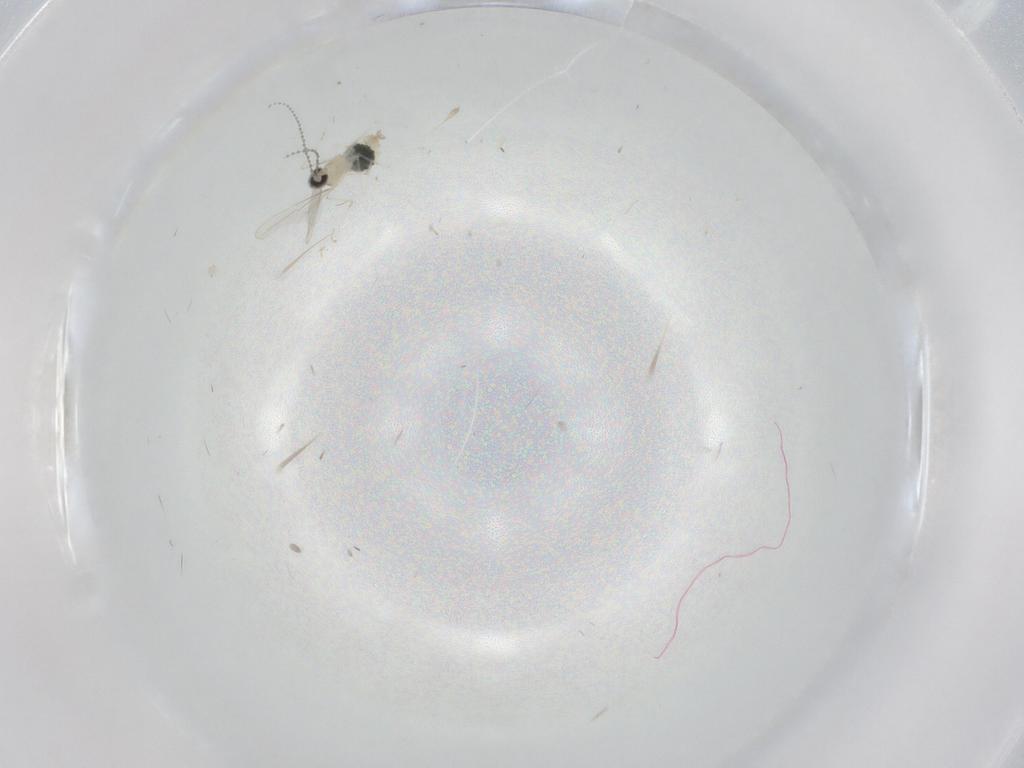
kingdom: Animalia
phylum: Arthropoda
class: Insecta
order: Diptera
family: Cecidomyiidae
